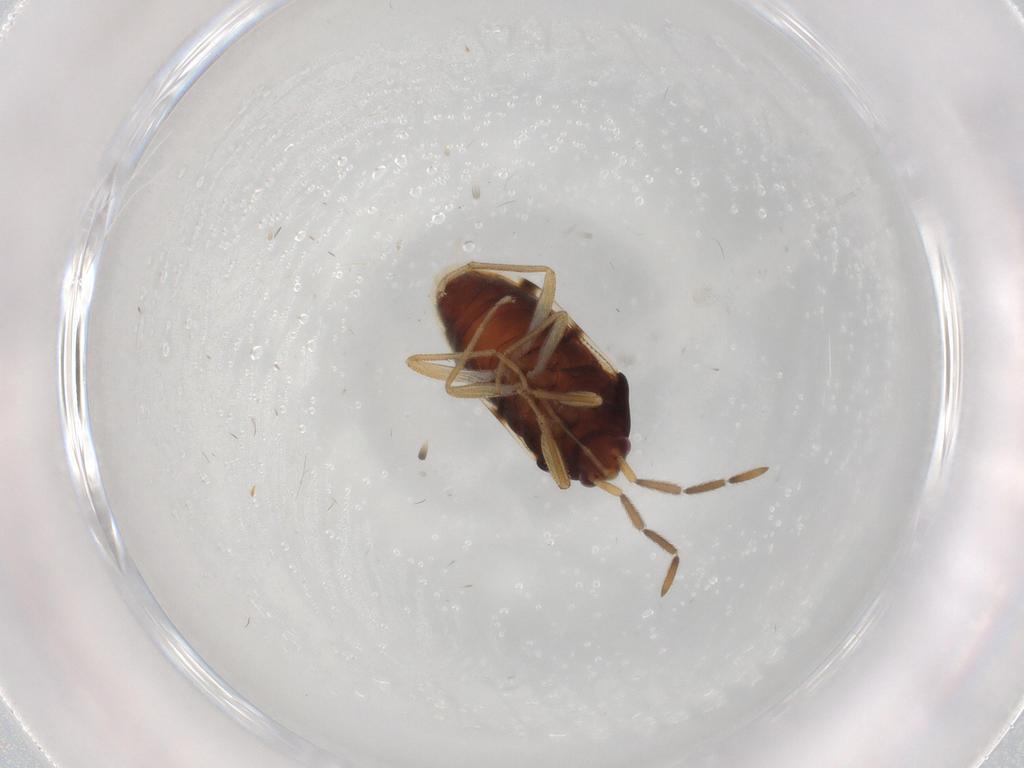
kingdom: Animalia
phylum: Arthropoda
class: Insecta
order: Hemiptera
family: Rhyparochromidae
